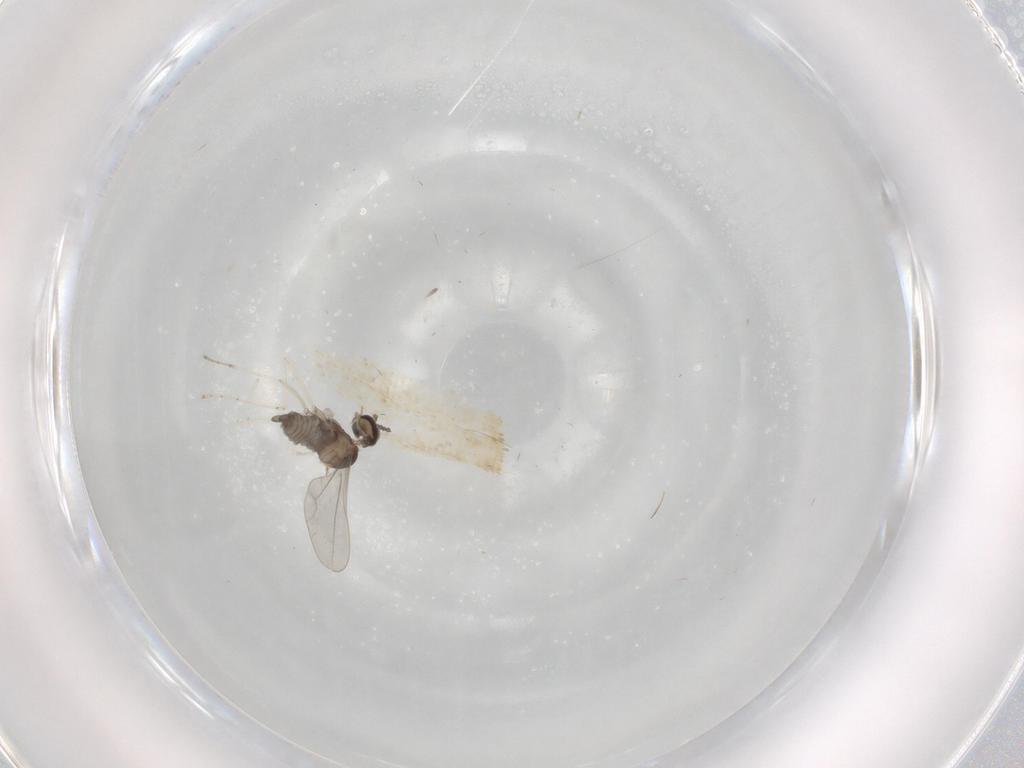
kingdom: Animalia
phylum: Arthropoda
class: Insecta
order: Diptera
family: Cecidomyiidae
